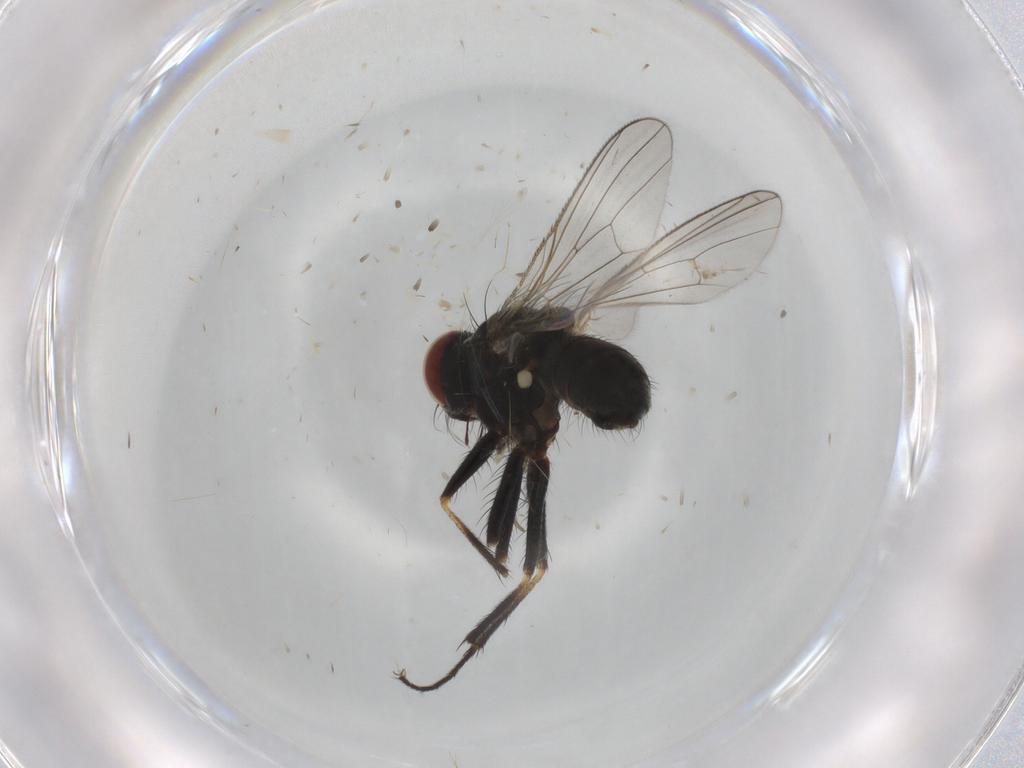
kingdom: Animalia
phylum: Arthropoda
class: Insecta
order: Diptera
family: Muscidae
